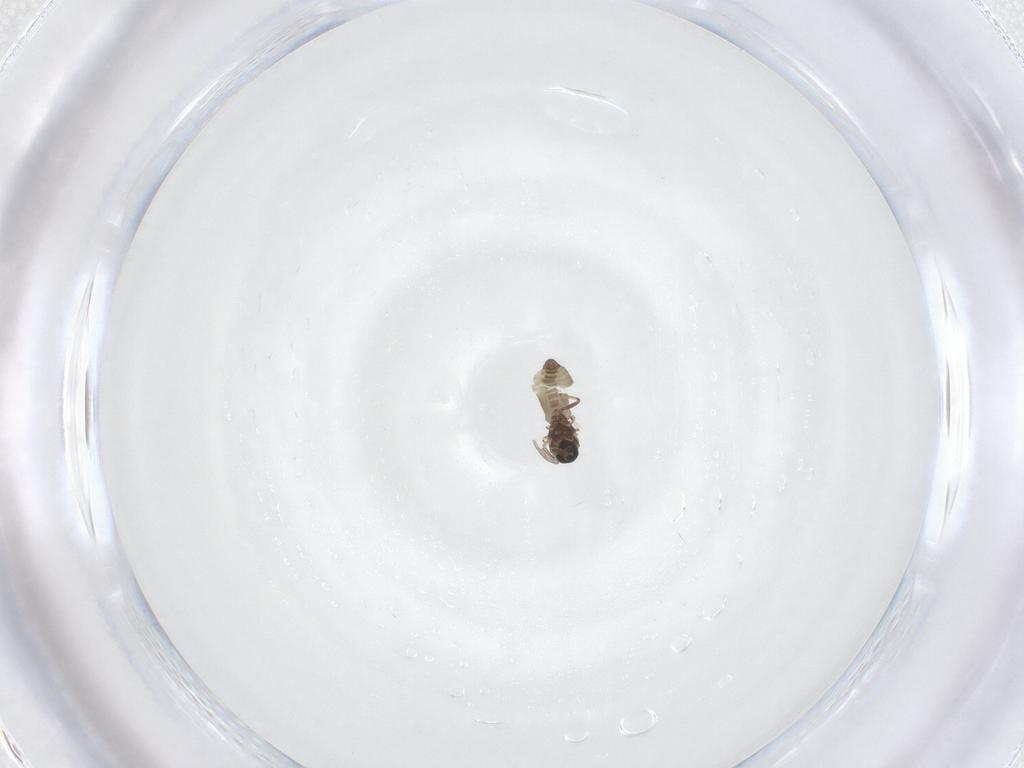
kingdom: Animalia
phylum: Arthropoda
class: Insecta
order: Diptera
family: Ceratopogonidae
